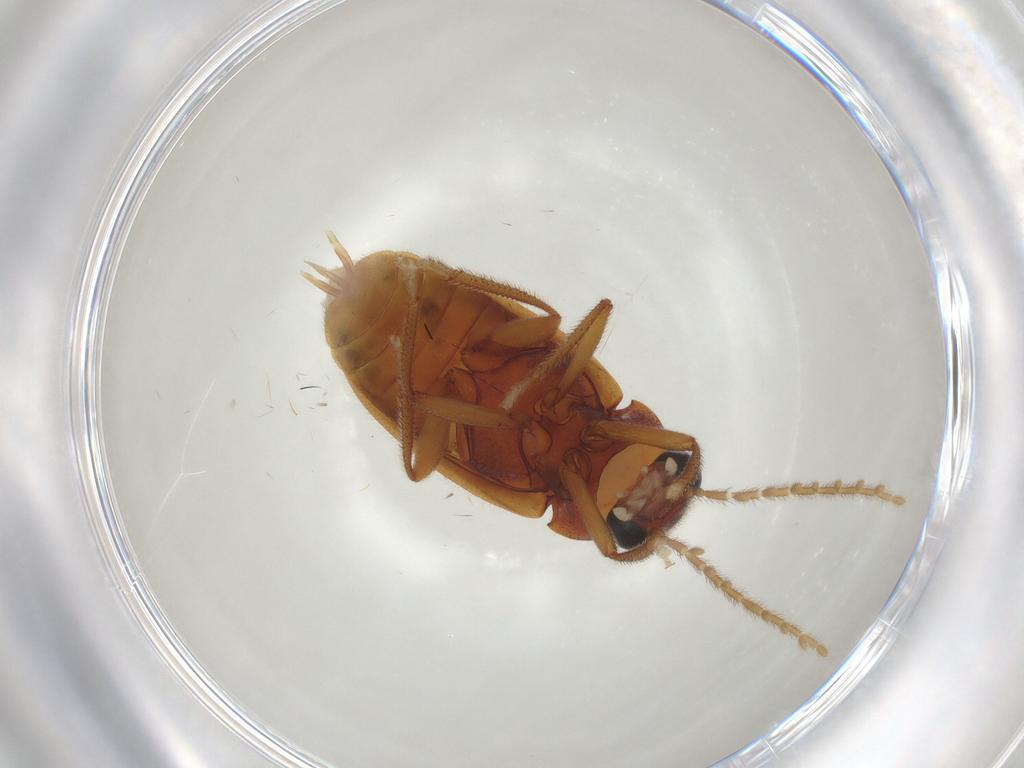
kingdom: Animalia
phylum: Arthropoda
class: Insecta
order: Coleoptera
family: Ptilodactylidae
